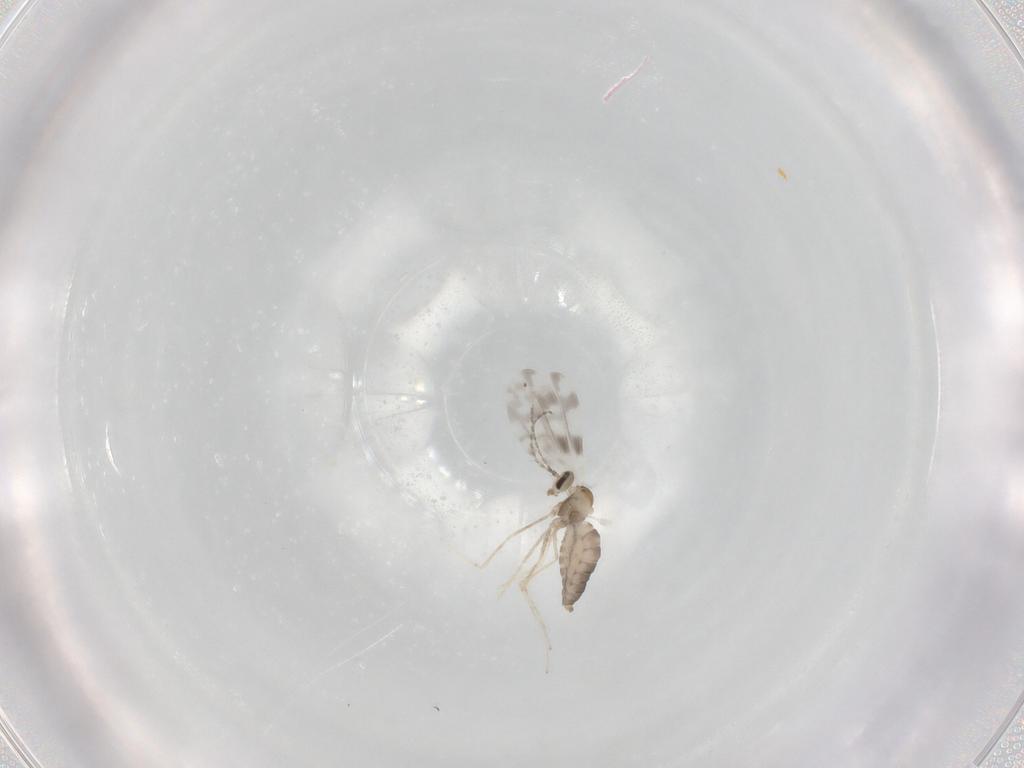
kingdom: Animalia
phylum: Arthropoda
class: Insecta
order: Diptera
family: Cecidomyiidae
